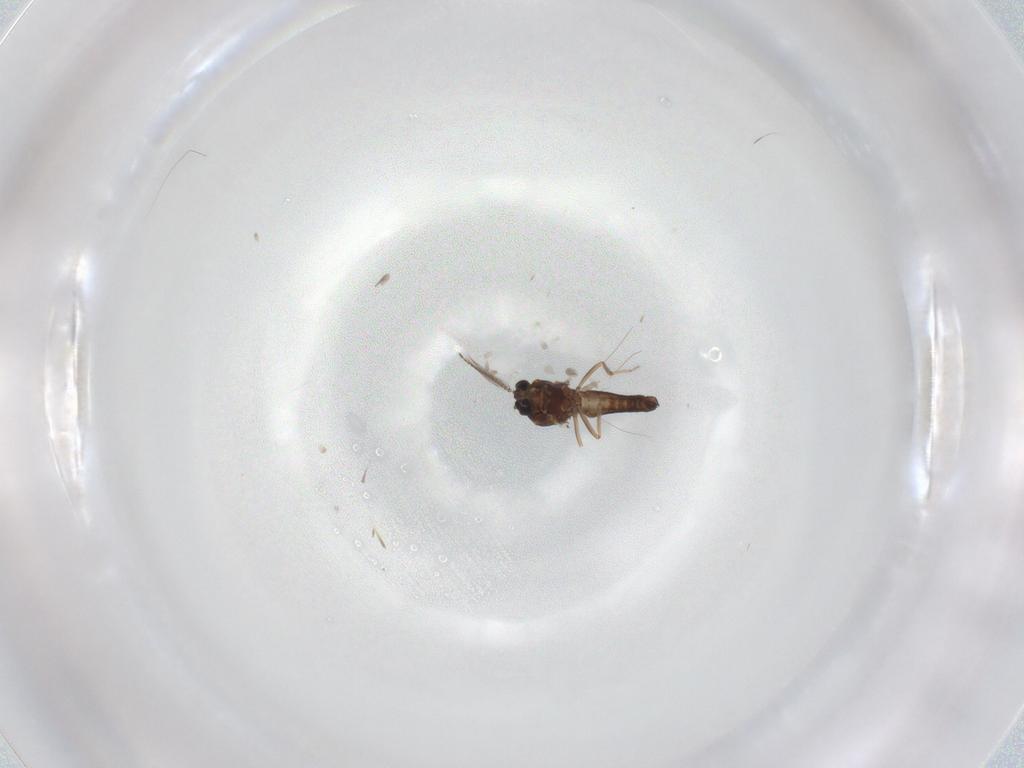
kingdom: Animalia
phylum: Arthropoda
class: Insecta
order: Diptera
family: Ceratopogonidae
